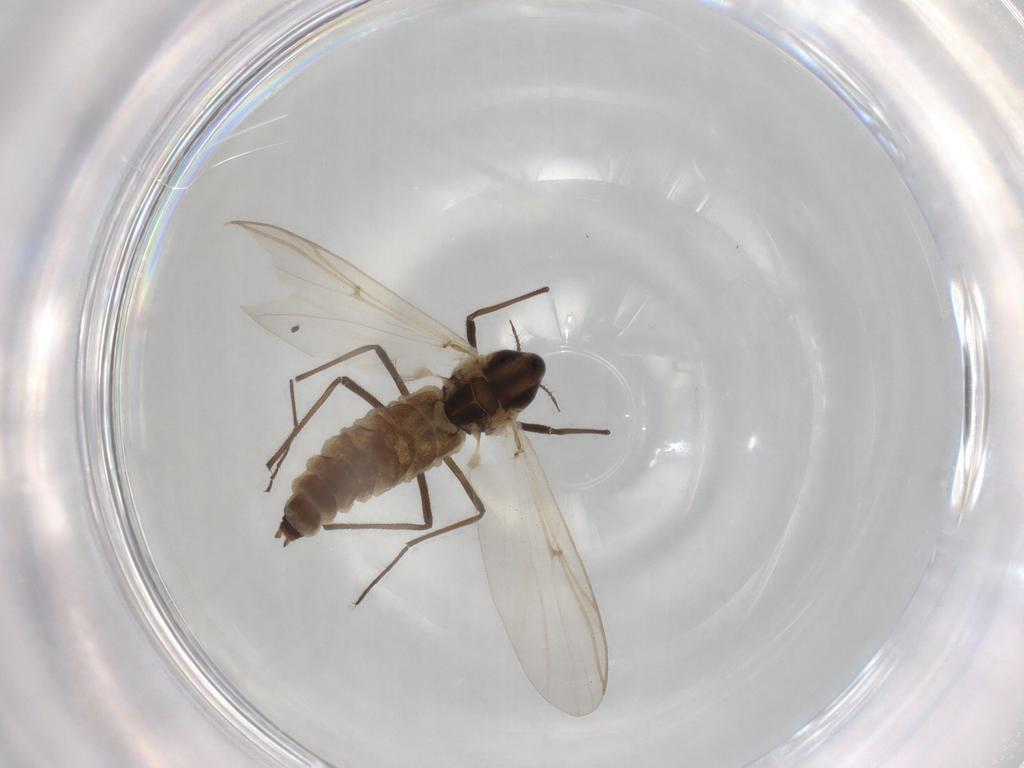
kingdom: Animalia
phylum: Arthropoda
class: Insecta
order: Diptera
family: Chironomidae
